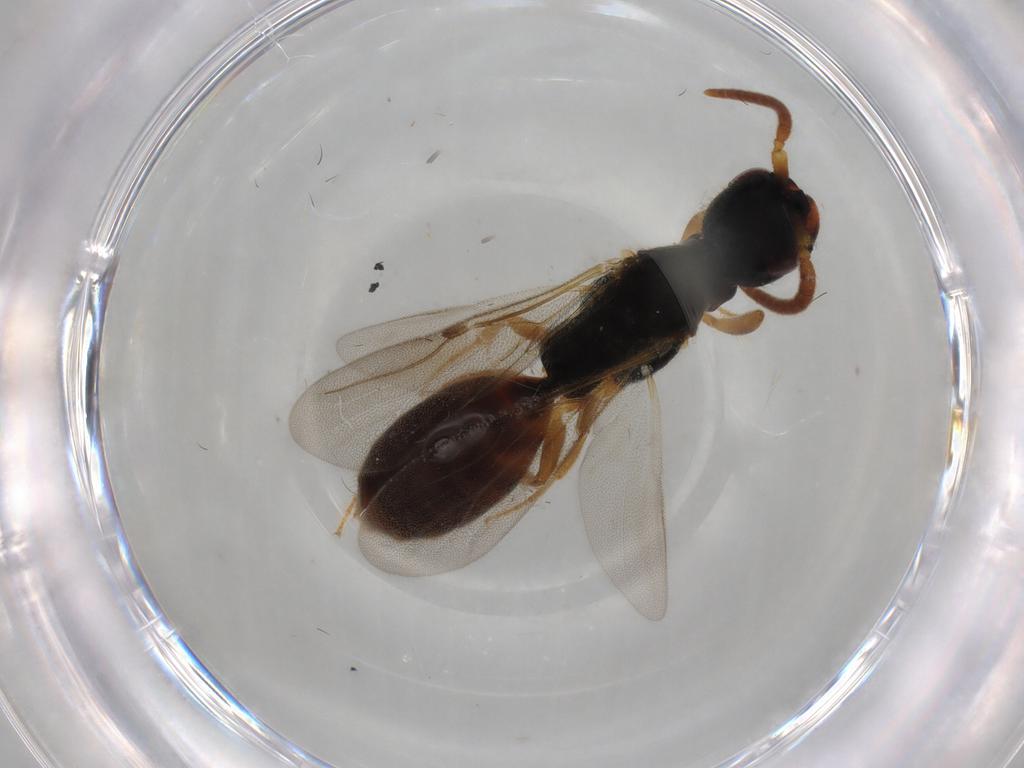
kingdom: Animalia
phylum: Arthropoda
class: Insecta
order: Hymenoptera
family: Bethylidae
